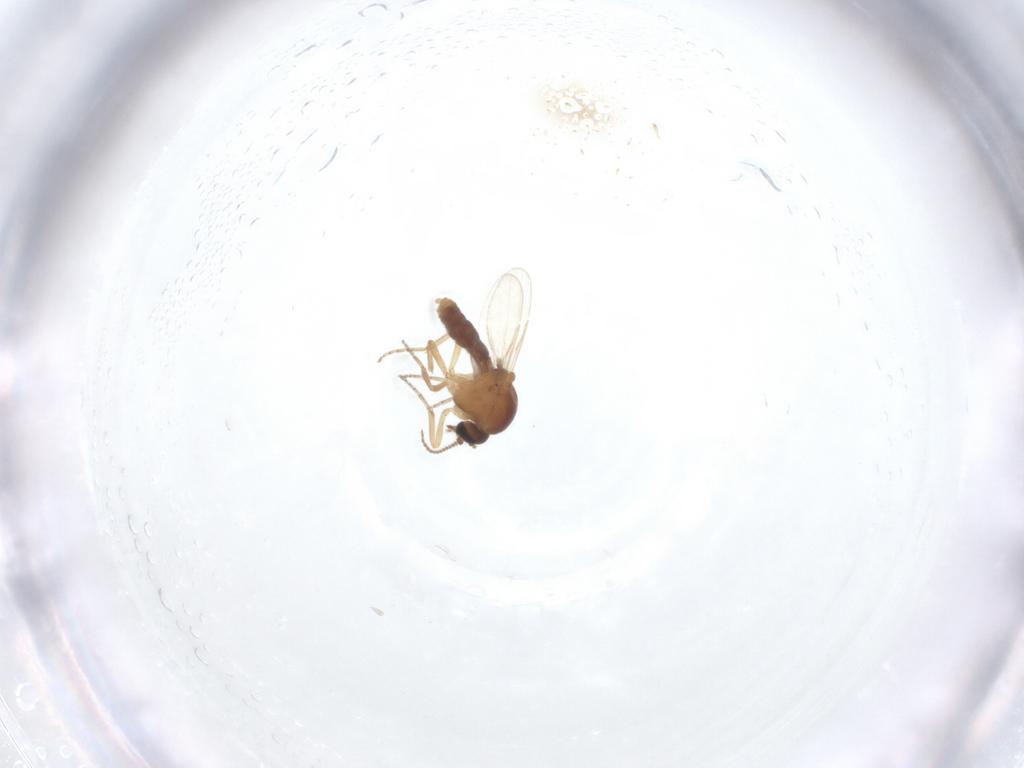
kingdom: Animalia
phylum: Arthropoda
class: Insecta
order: Diptera
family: Ceratopogonidae
